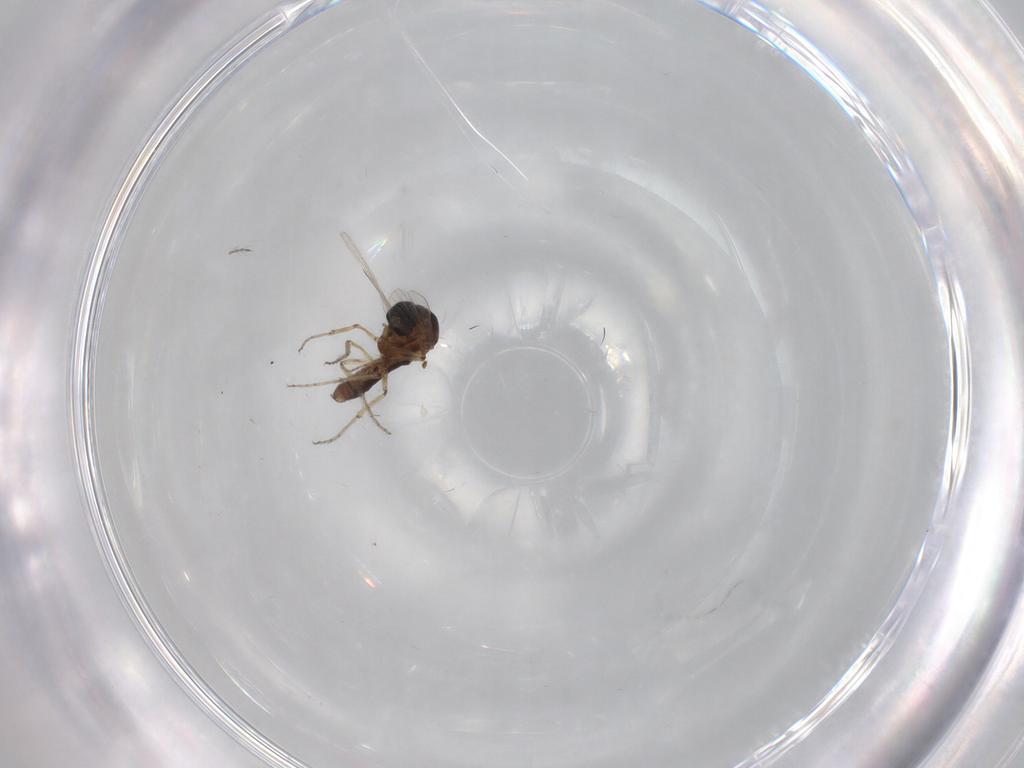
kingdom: Animalia
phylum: Arthropoda
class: Insecta
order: Diptera
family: Ceratopogonidae
